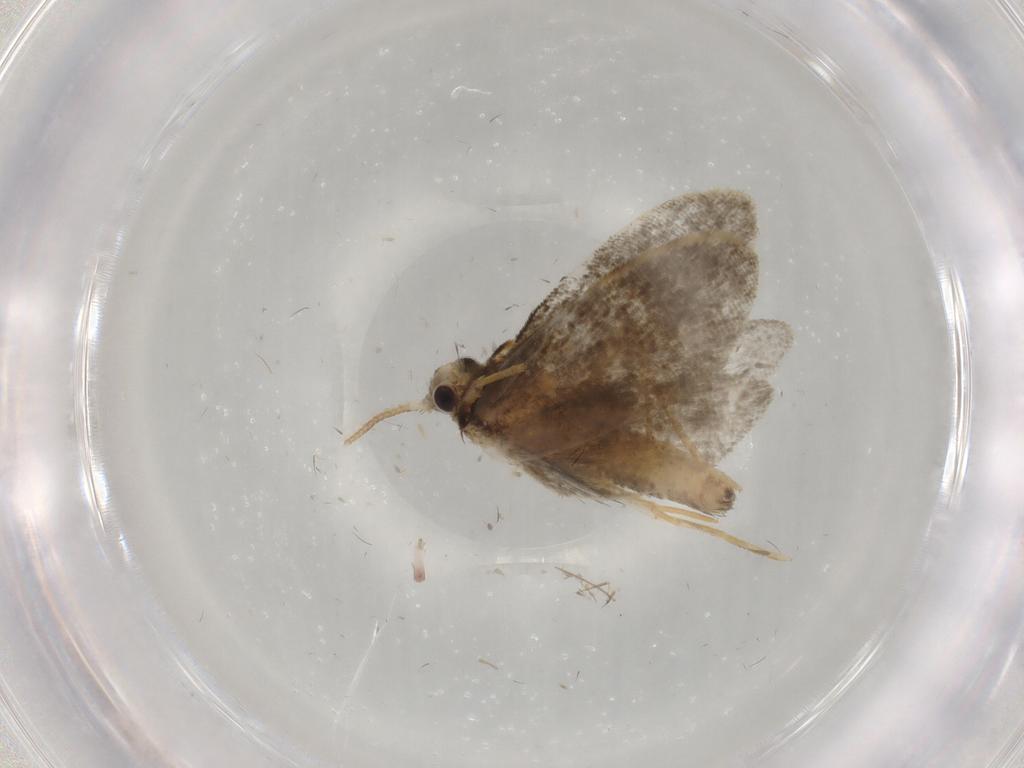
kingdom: Animalia
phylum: Arthropoda
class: Insecta
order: Lepidoptera
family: Psychidae
